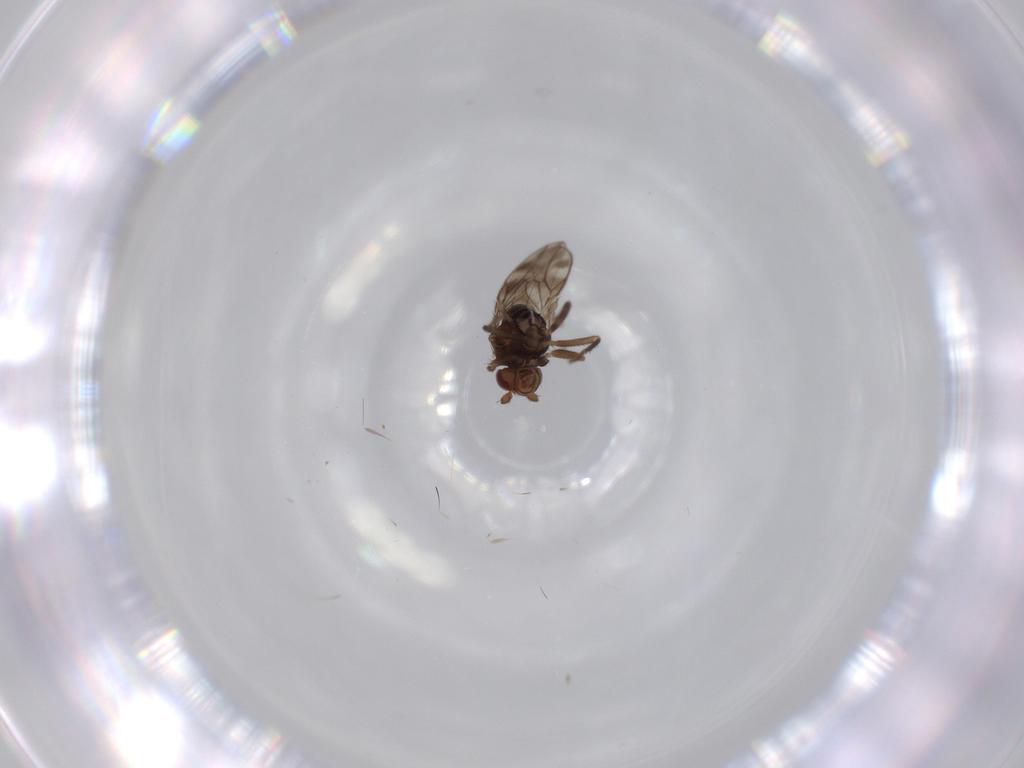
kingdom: Animalia
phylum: Arthropoda
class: Insecta
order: Diptera
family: Sphaeroceridae
